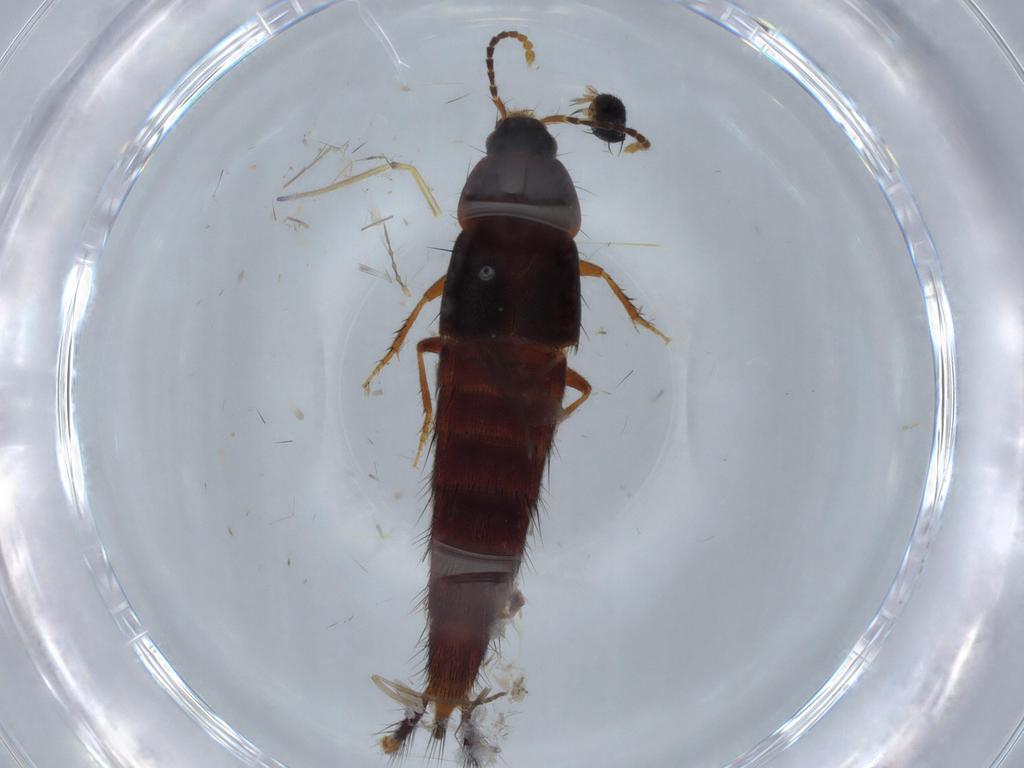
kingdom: Animalia
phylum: Arthropoda
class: Insecta
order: Coleoptera
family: Staphylinidae
